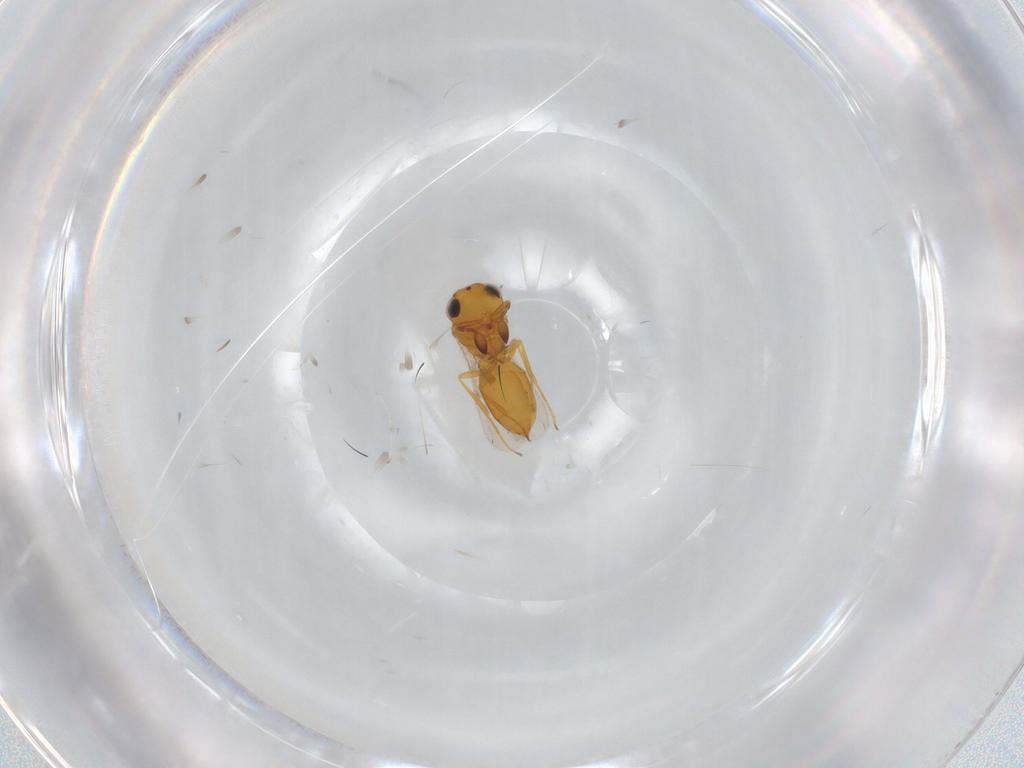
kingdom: Animalia
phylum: Arthropoda
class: Insecta
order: Hymenoptera
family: Scelionidae
